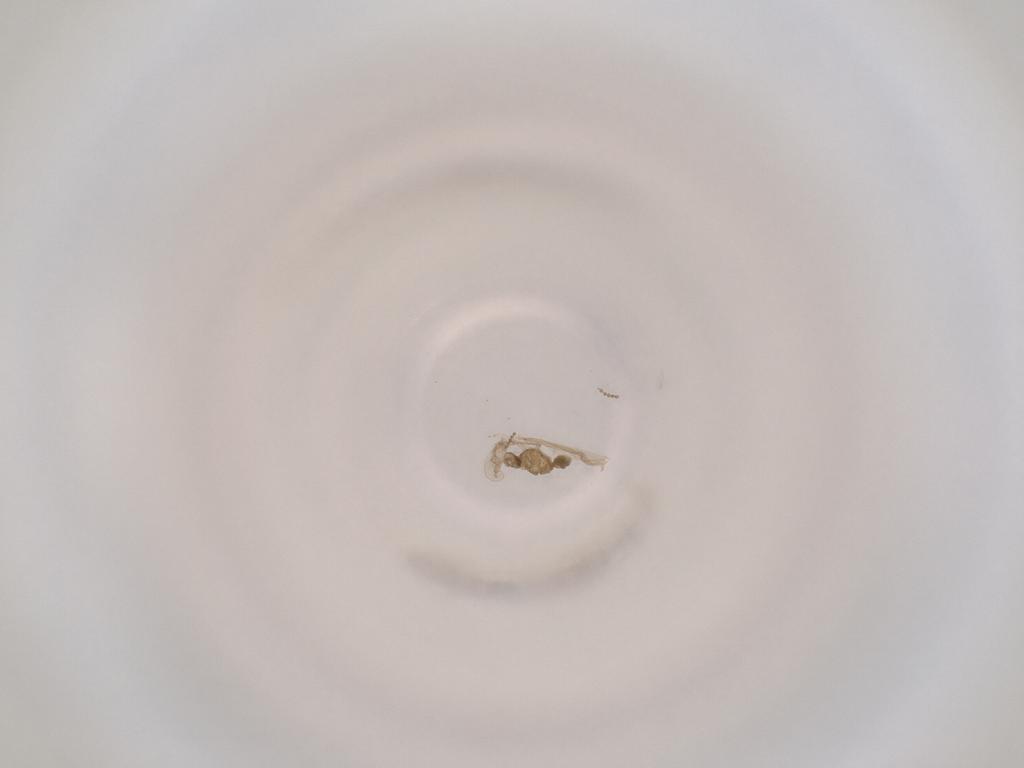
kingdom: Animalia
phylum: Arthropoda
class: Insecta
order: Diptera
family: Cecidomyiidae
